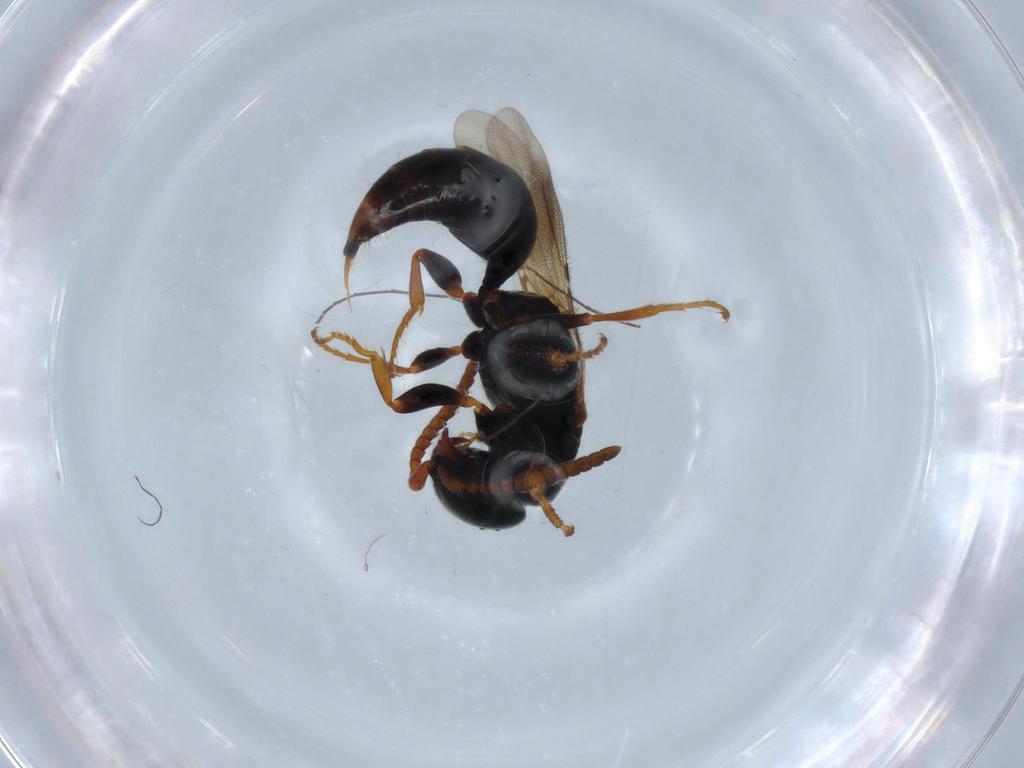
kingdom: Animalia
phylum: Arthropoda
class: Insecta
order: Hymenoptera
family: Bethylidae
